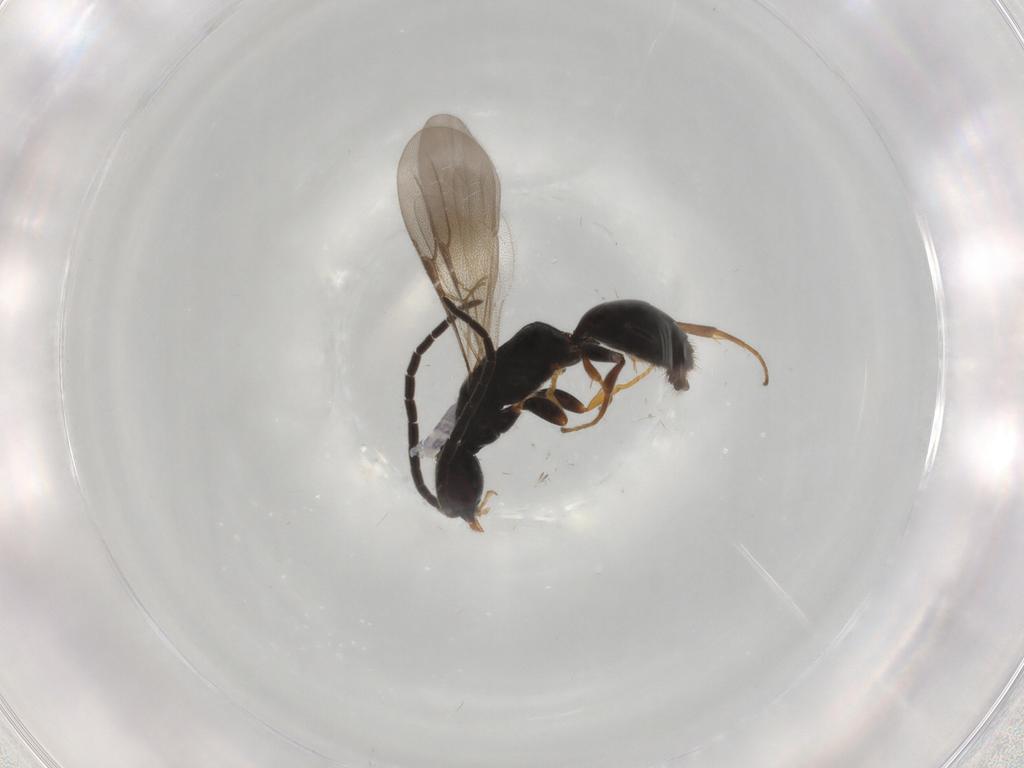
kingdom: Animalia
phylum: Arthropoda
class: Insecta
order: Hymenoptera
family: Bethylidae
